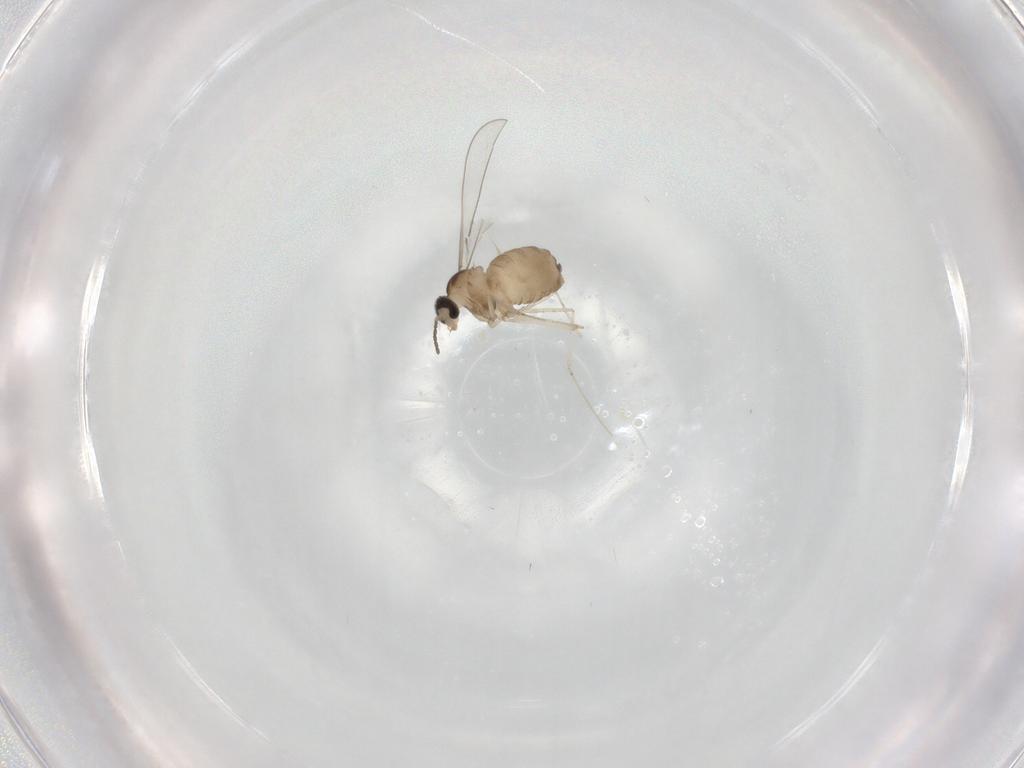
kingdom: Animalia
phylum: Arthropoda
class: Insecta
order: Diptera
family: Cecidomyiidae
